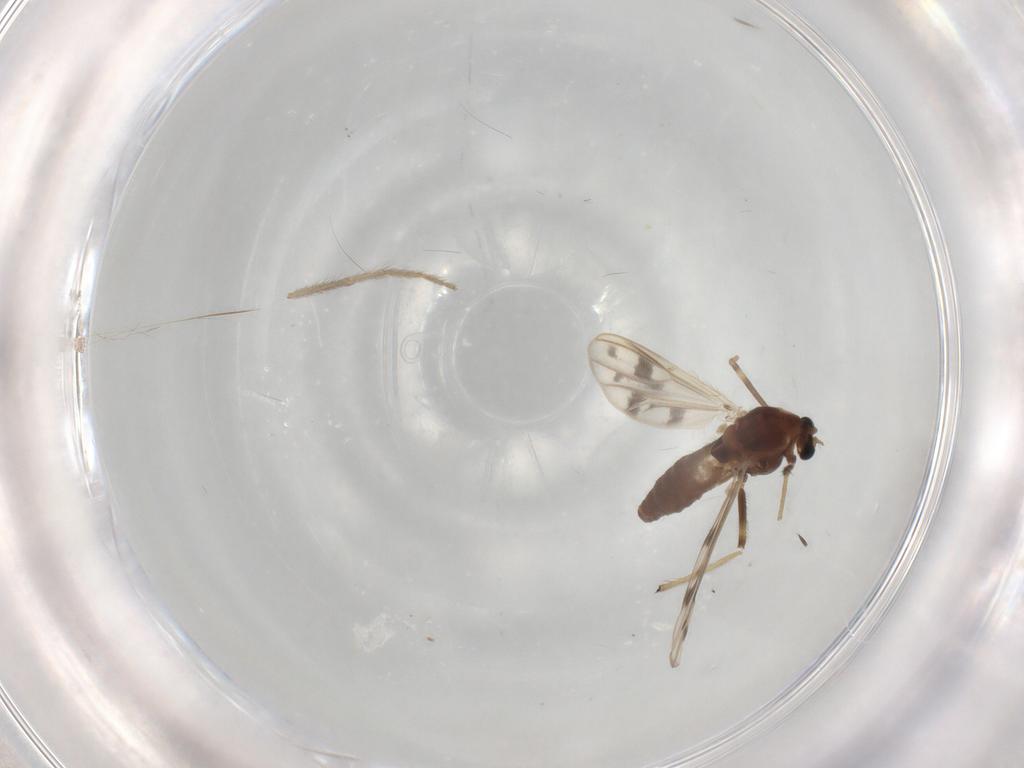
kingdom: Animalia
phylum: Arthropoda
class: Insecta
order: Diptera
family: Chironomidae
